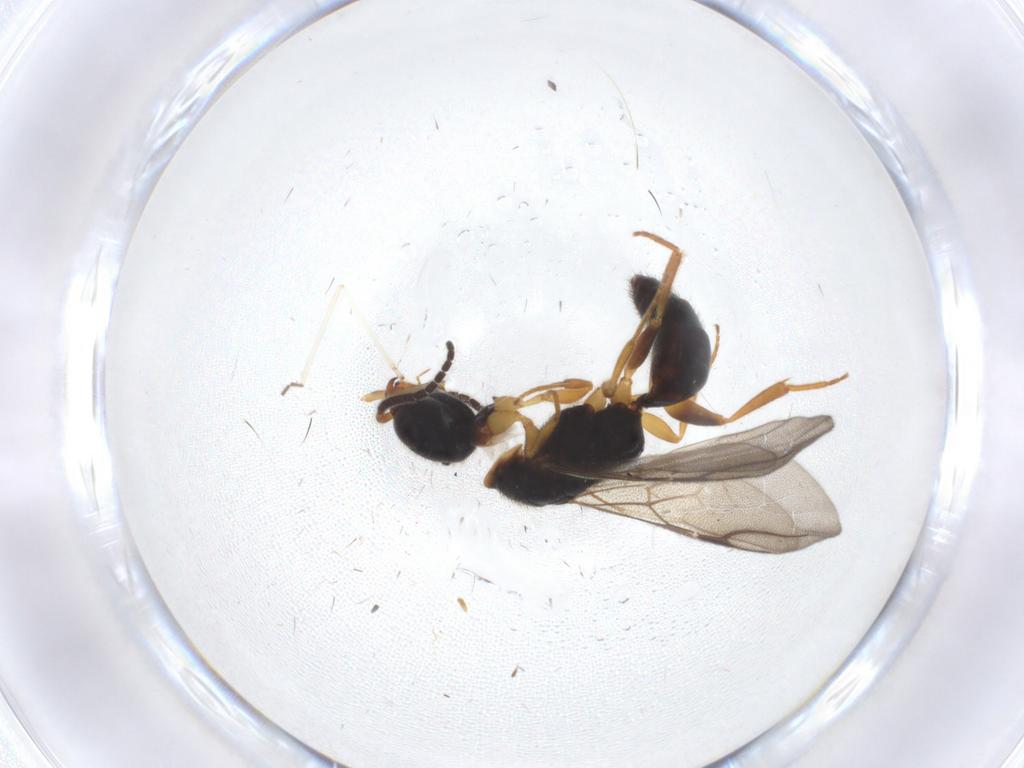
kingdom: Animalia
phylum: Arthropoda
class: Insecta
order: Hymenoptera
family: Bethylidae
